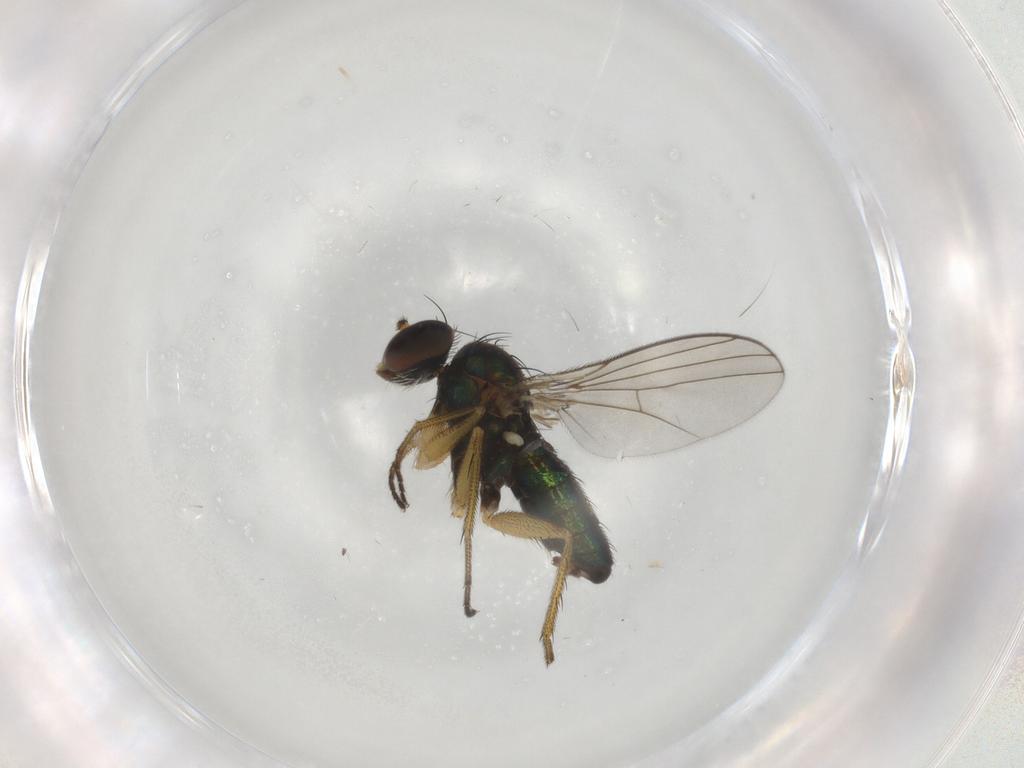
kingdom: Animalia
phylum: Arthropoda
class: Insecta
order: Diptera
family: Dolichopodidae
